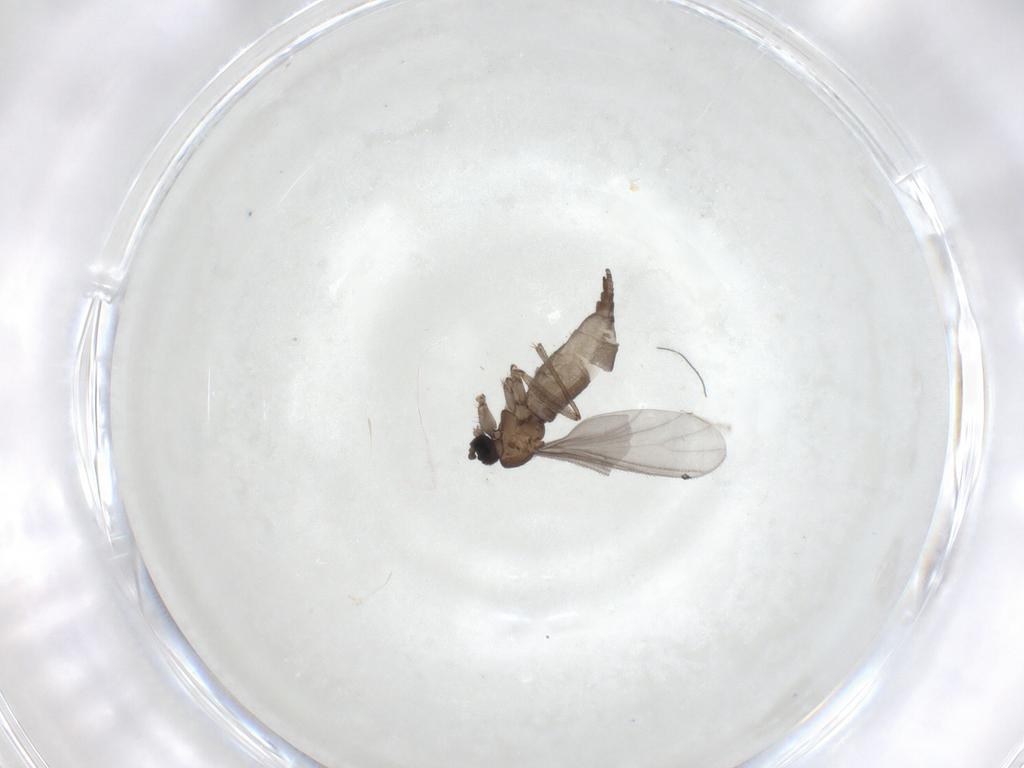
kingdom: Animalia
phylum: Arthropoda
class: Insecta
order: Diptera
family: Sciaridae
